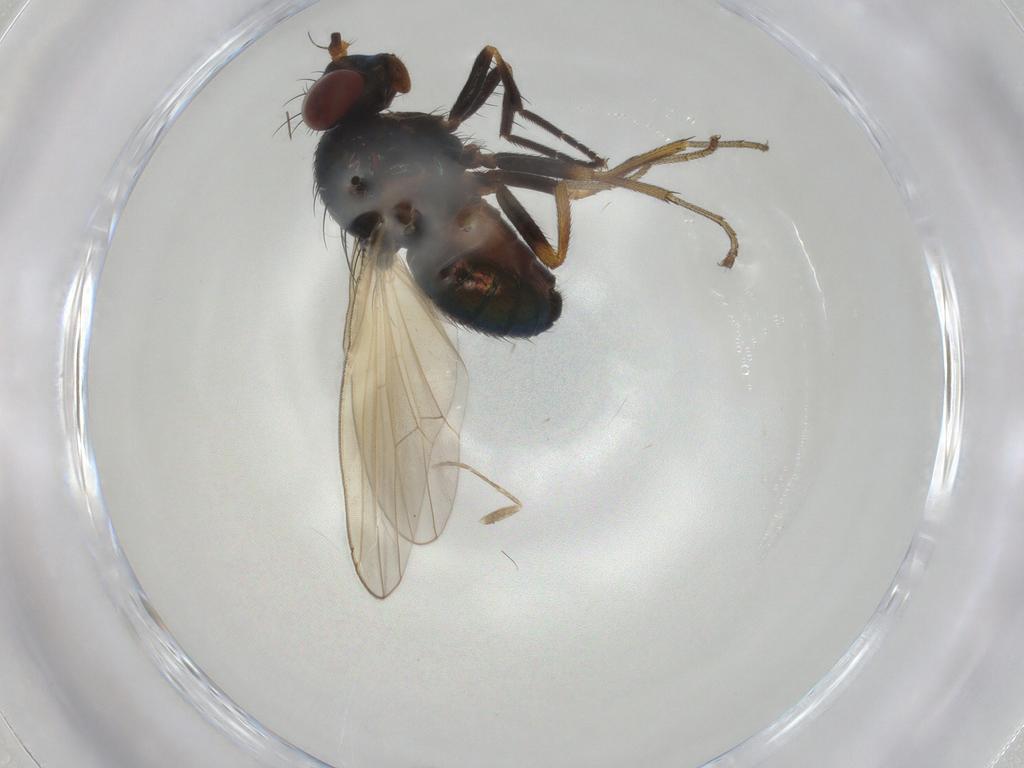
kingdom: Animalia
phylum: Arthropoda
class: Insecta
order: Diptera
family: Lauxaniidae
